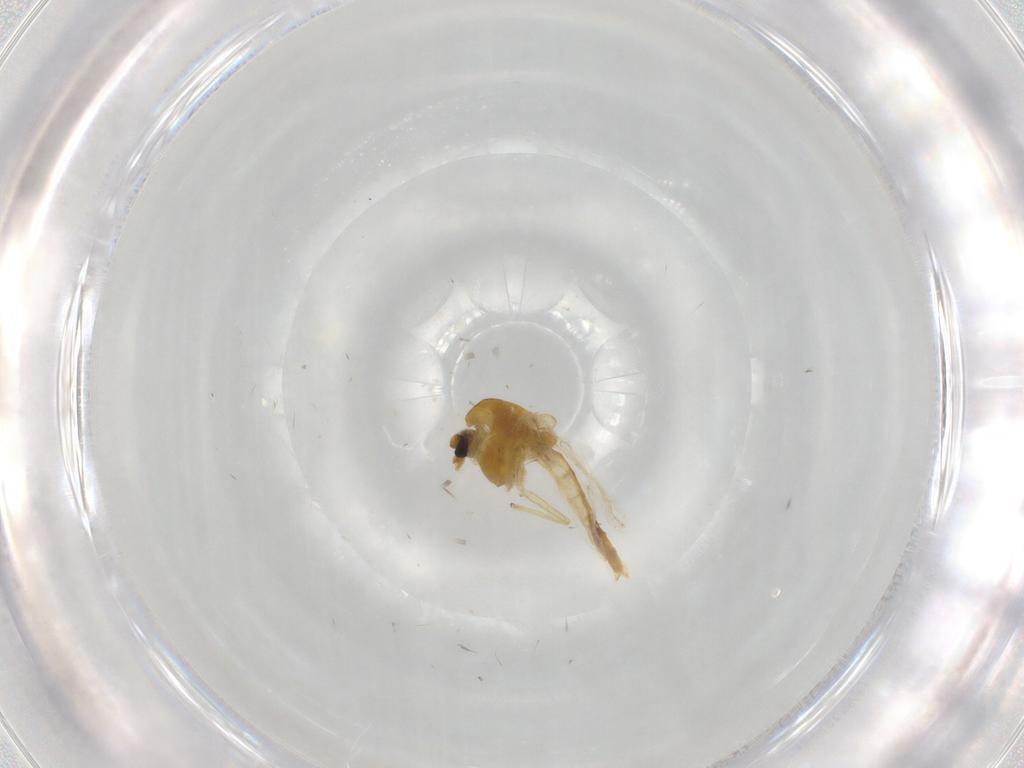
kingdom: Animalia
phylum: Arthropoda
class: Insecta
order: Diptera
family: Chironomidae
